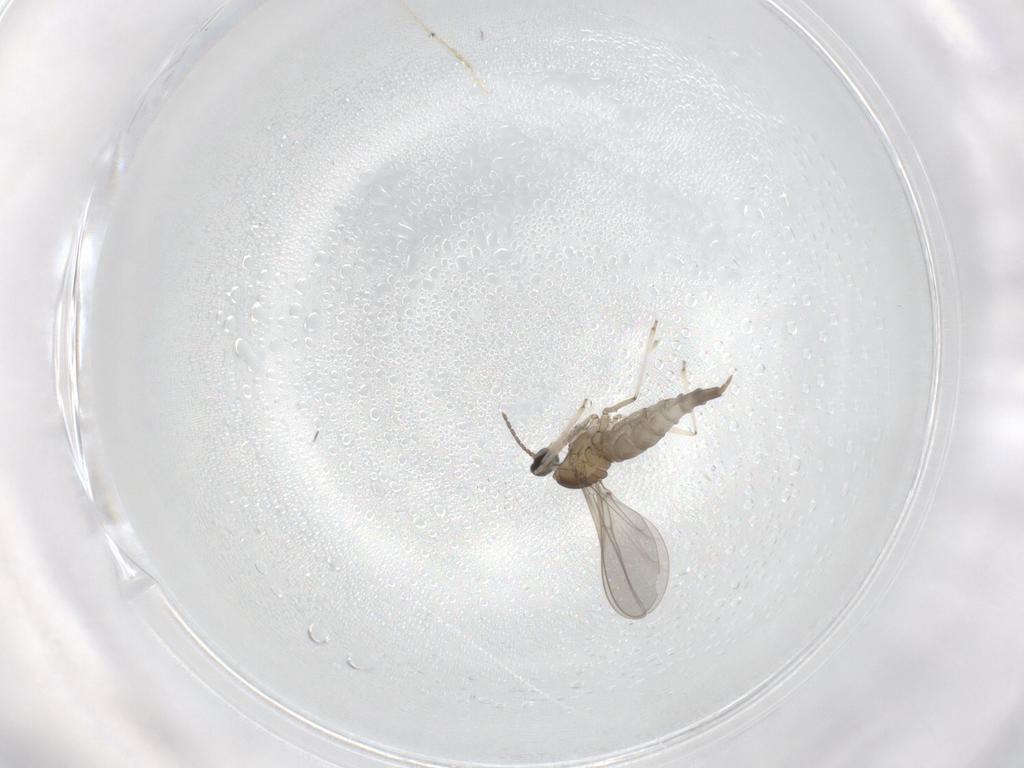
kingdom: Animalia
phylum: Arthropoda
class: Insecta
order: Diptera
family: Cecidomyiidae
